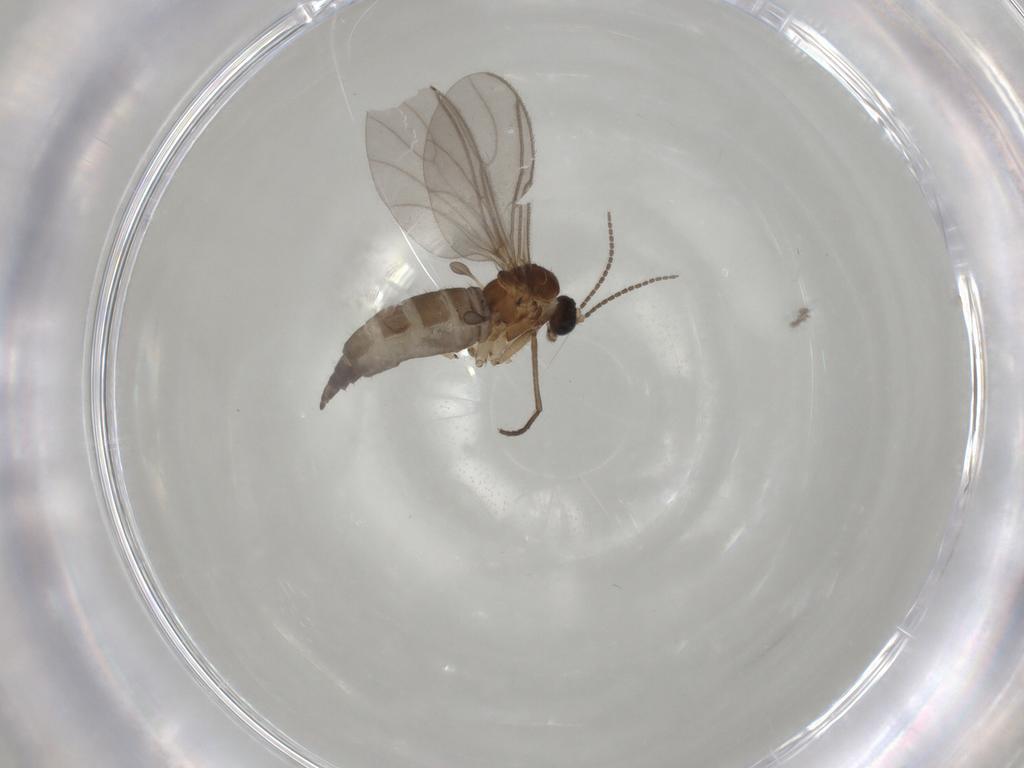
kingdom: Animalia
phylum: Arthropoda
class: Insecta
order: Diptera
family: Sciaridae
